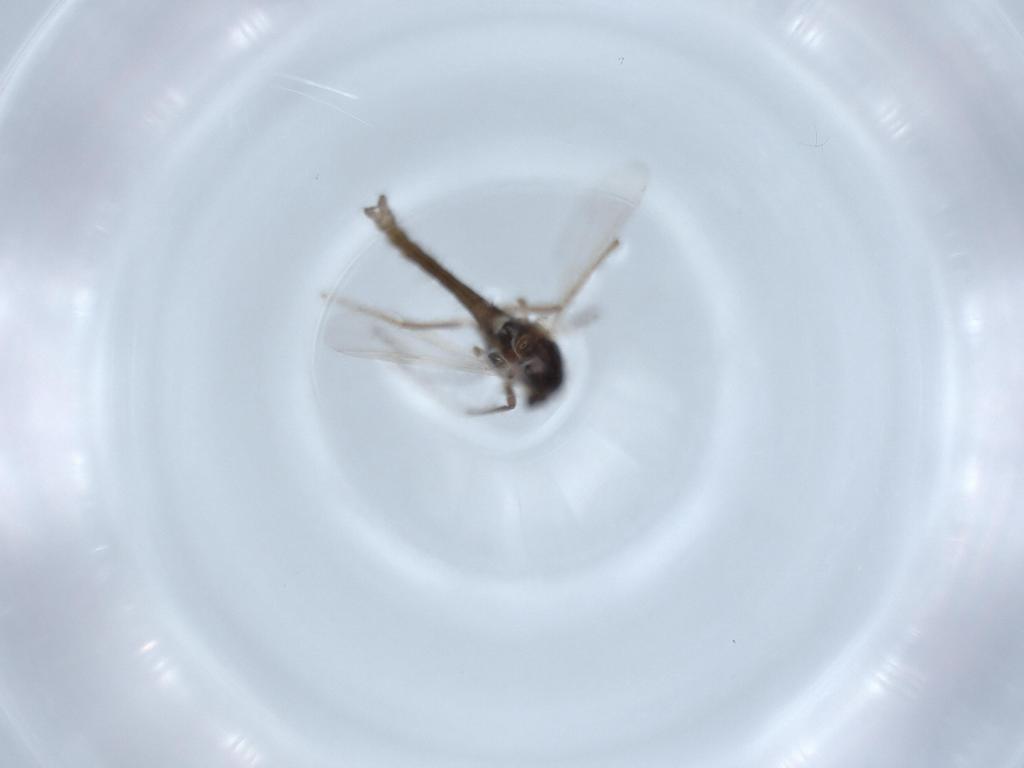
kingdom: Animalia
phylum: Arthropoda
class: Insecta
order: Diptera
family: Chironomidae
